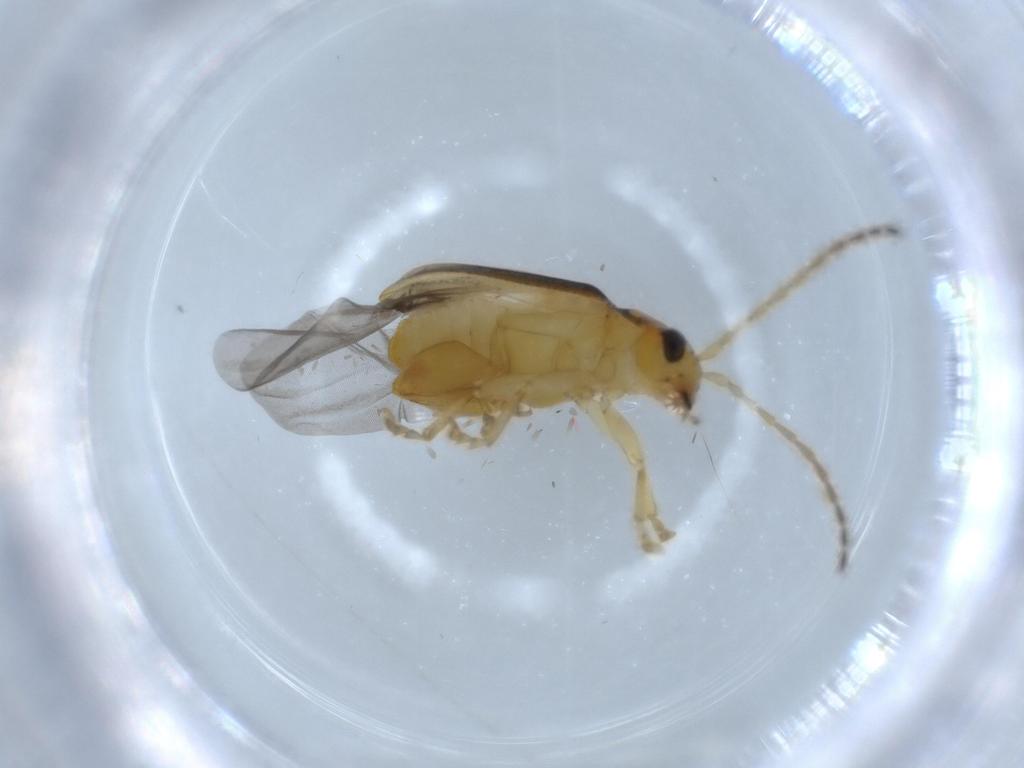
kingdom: Animalia
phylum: Arthropoda
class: Insecta
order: Coleoptera
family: Chrysomelidae
